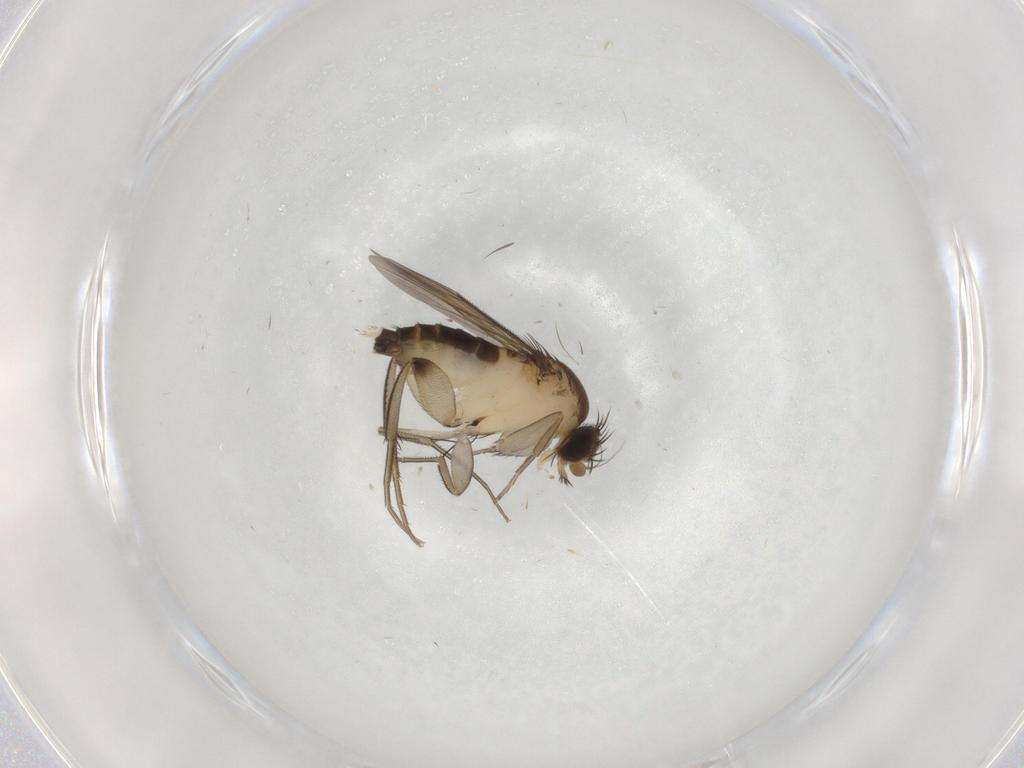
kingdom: Animalia
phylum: Arthropoda
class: Insecta
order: Diptera
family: Phoridae
